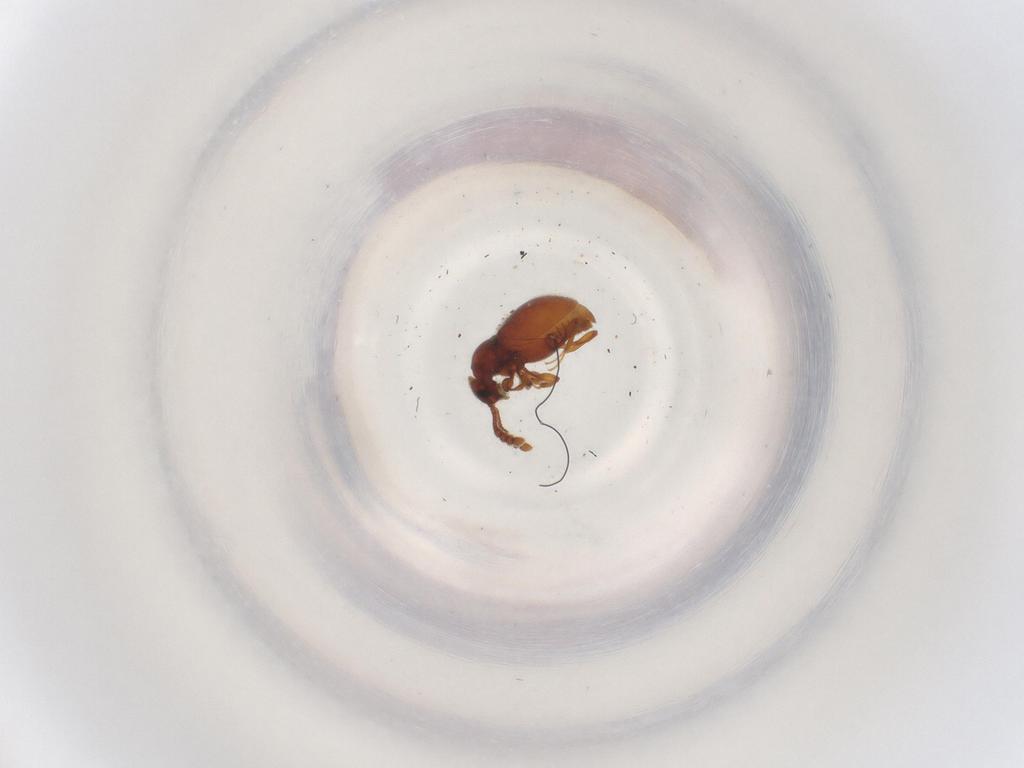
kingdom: Animalia
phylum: Arthropoda
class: Insecta
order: Coleoptera
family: Staphylinidae
